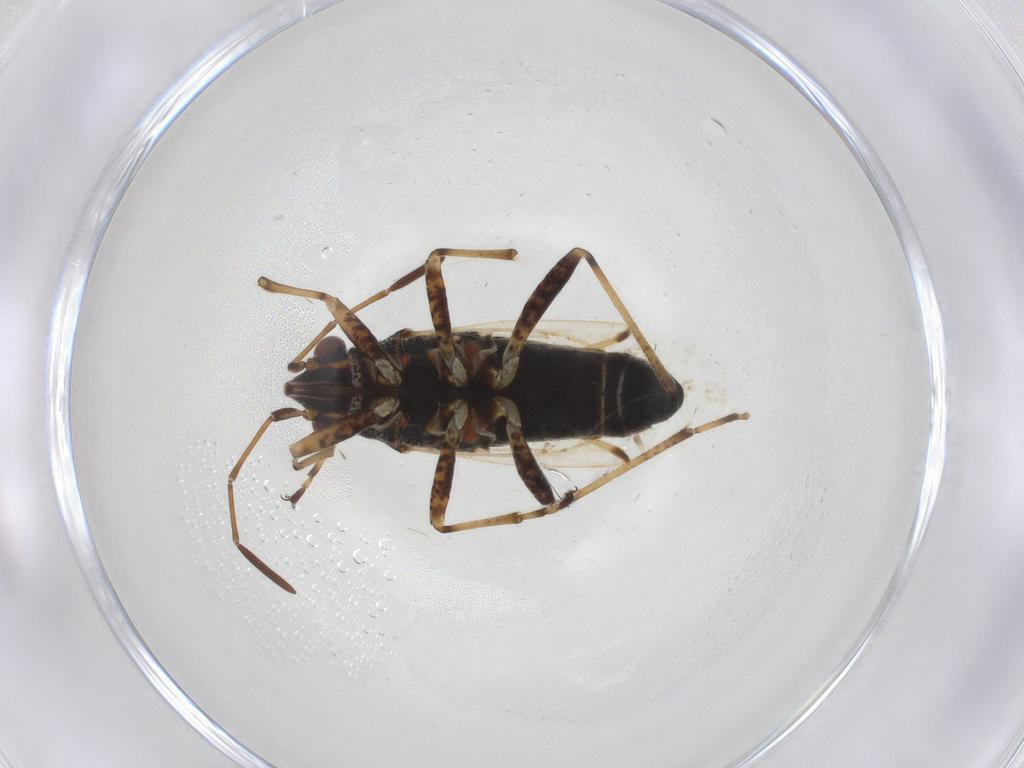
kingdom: Animalia
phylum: Arthropoda
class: Insecta
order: Hemiptera
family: Lygaeidae
